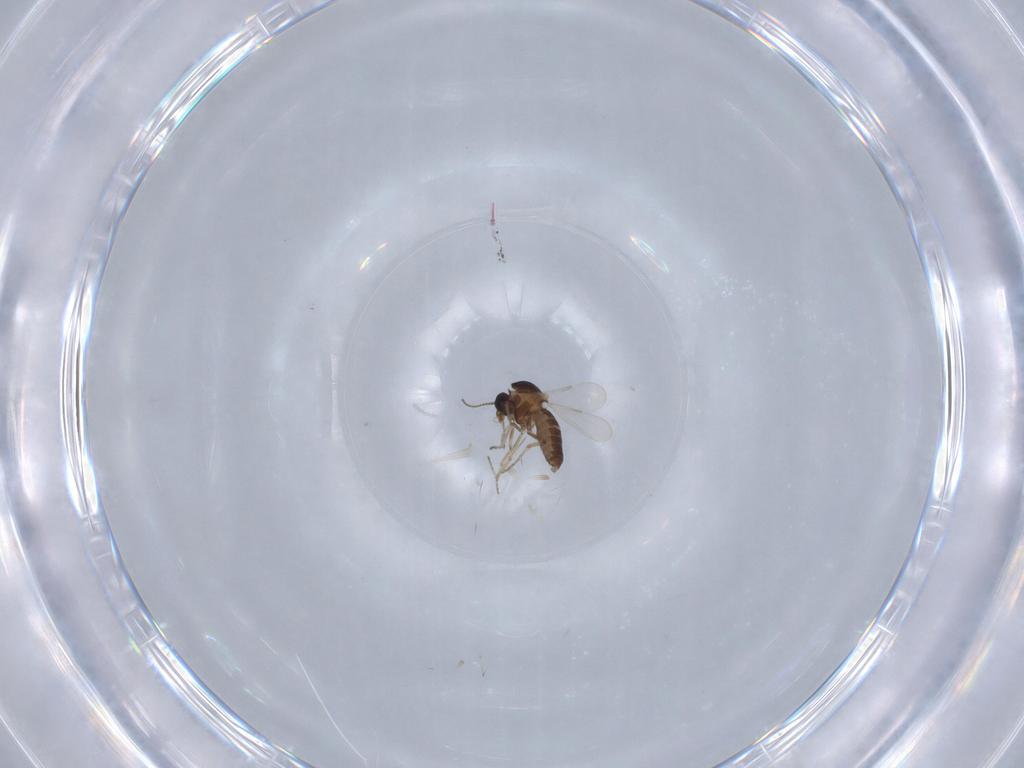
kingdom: Animalia
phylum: Arthropoda
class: Insecta
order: Diptera
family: Ceratopogonidae
